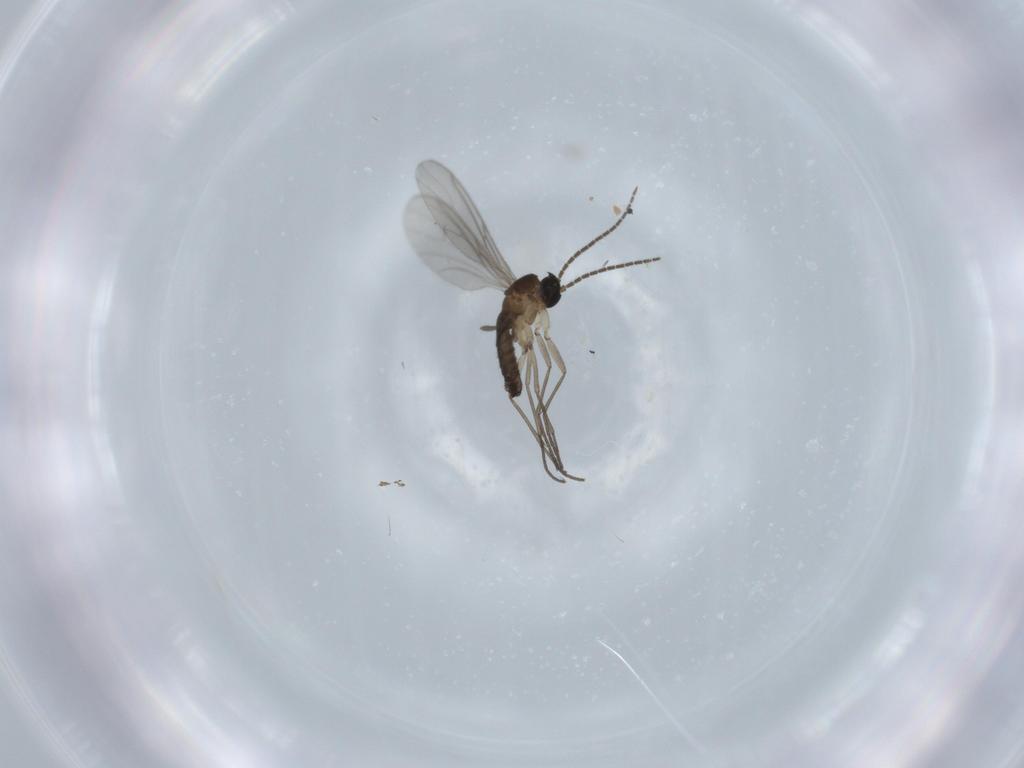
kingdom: Animalia
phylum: Arthropoda
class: Insecta
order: Diptera
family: Sciaridae
